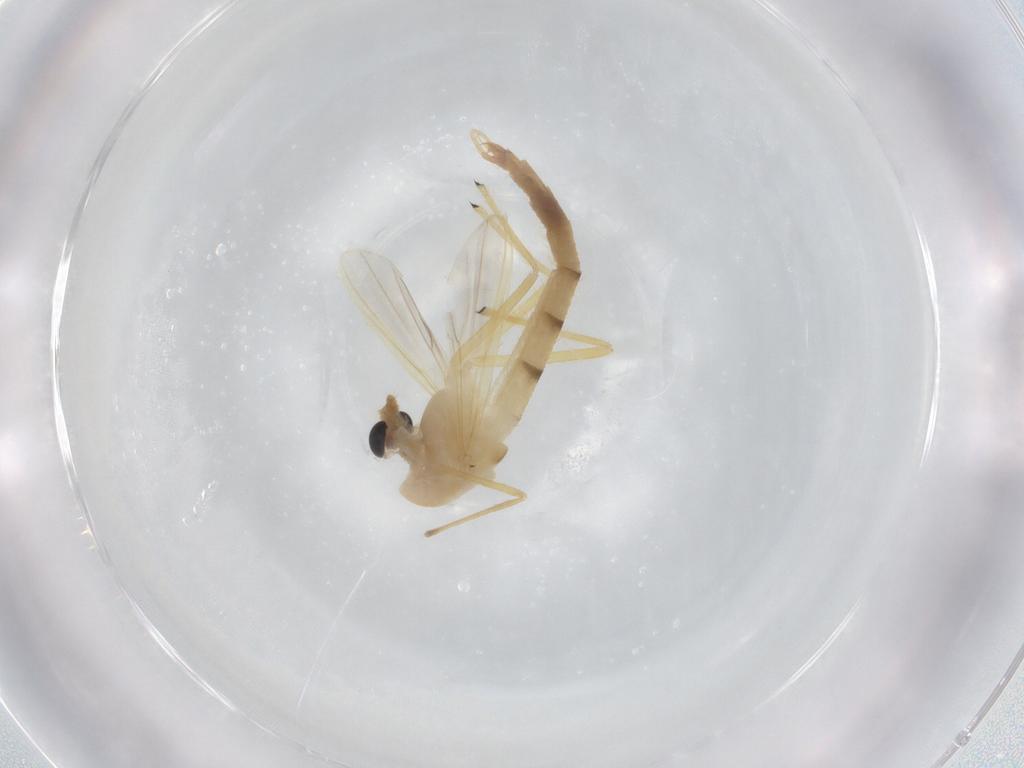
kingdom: Animalia
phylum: Arthropoda
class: Insecta
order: Diptera
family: Chironomidae
